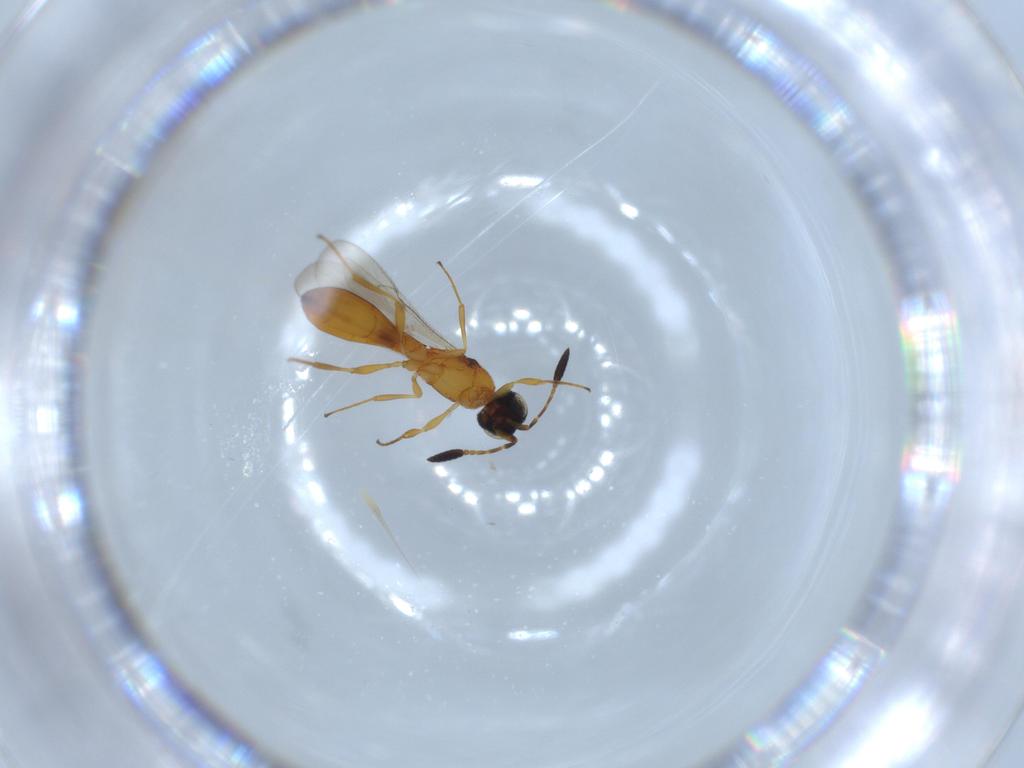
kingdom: Animalia
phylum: Arthropoda
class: Insecta
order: Hymenoptera
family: Scelionidae
